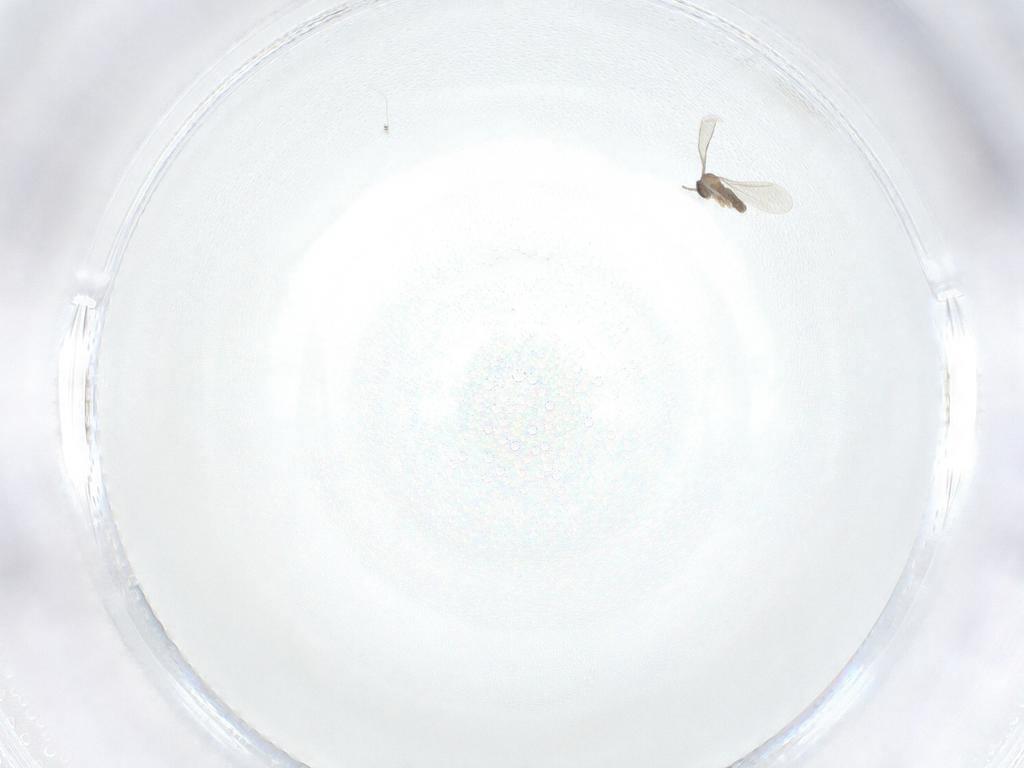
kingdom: Animalia
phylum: Arthropoda
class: Insecta
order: Diptera
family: Cecidomyiidae
